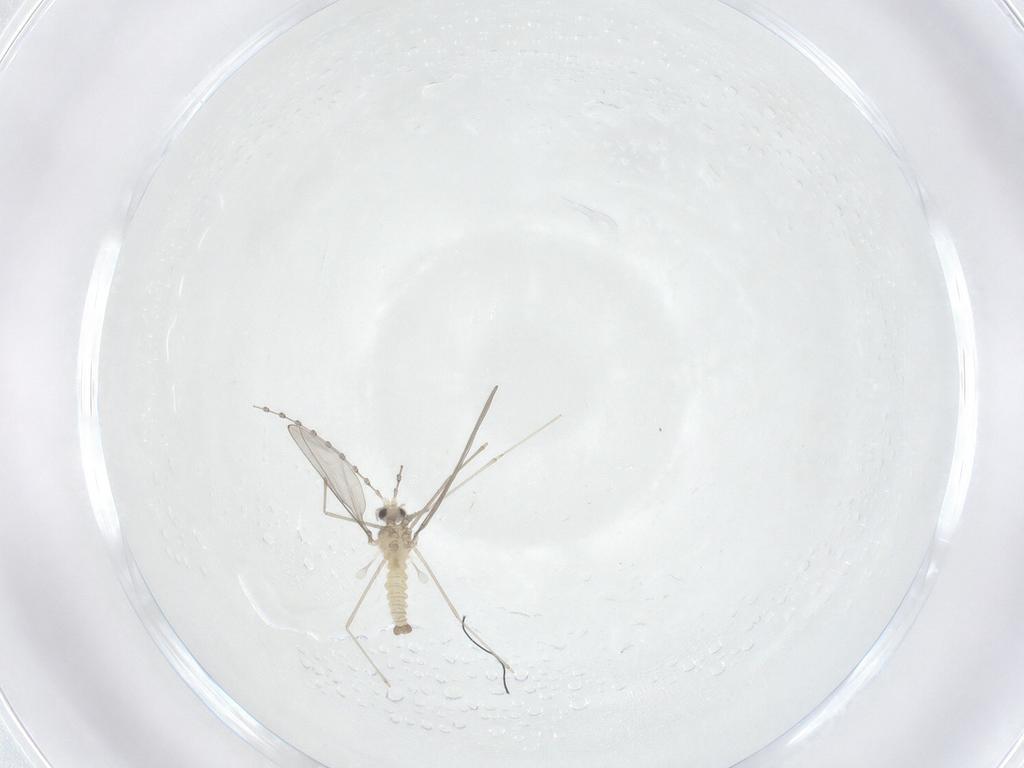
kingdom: Animalia
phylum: Arthropoda
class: Insecta
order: Diptera
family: Cecidomyiidae
